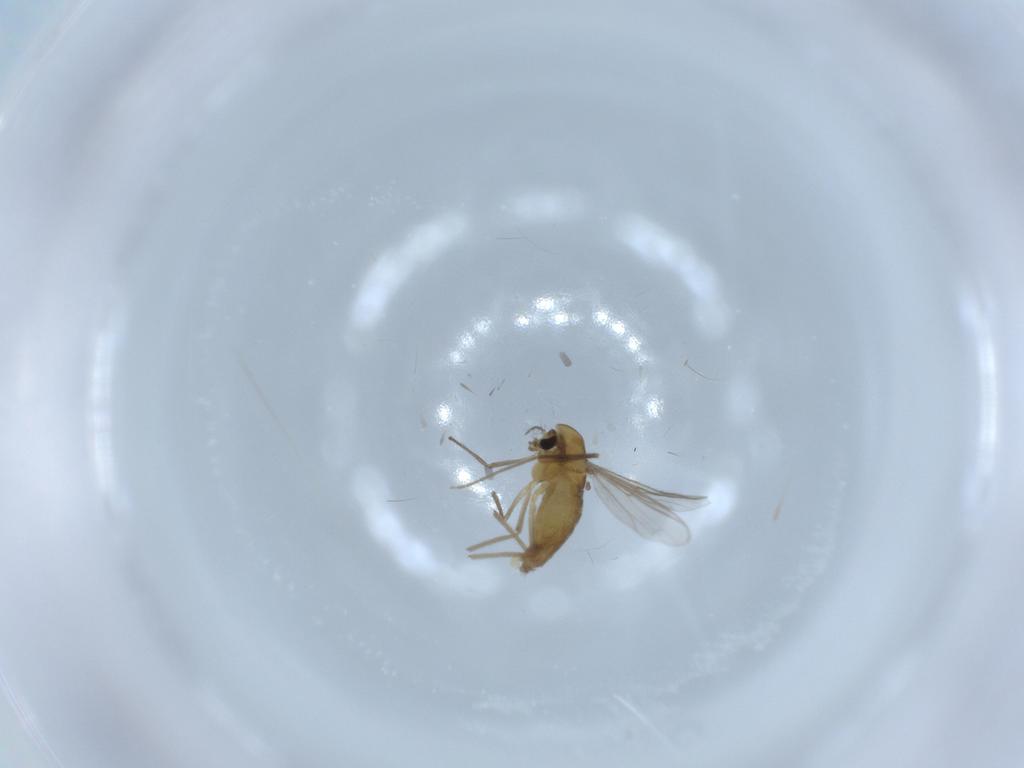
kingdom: Animalia
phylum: Arthropoda
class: Insecta
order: Diptera
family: Chironomidae
